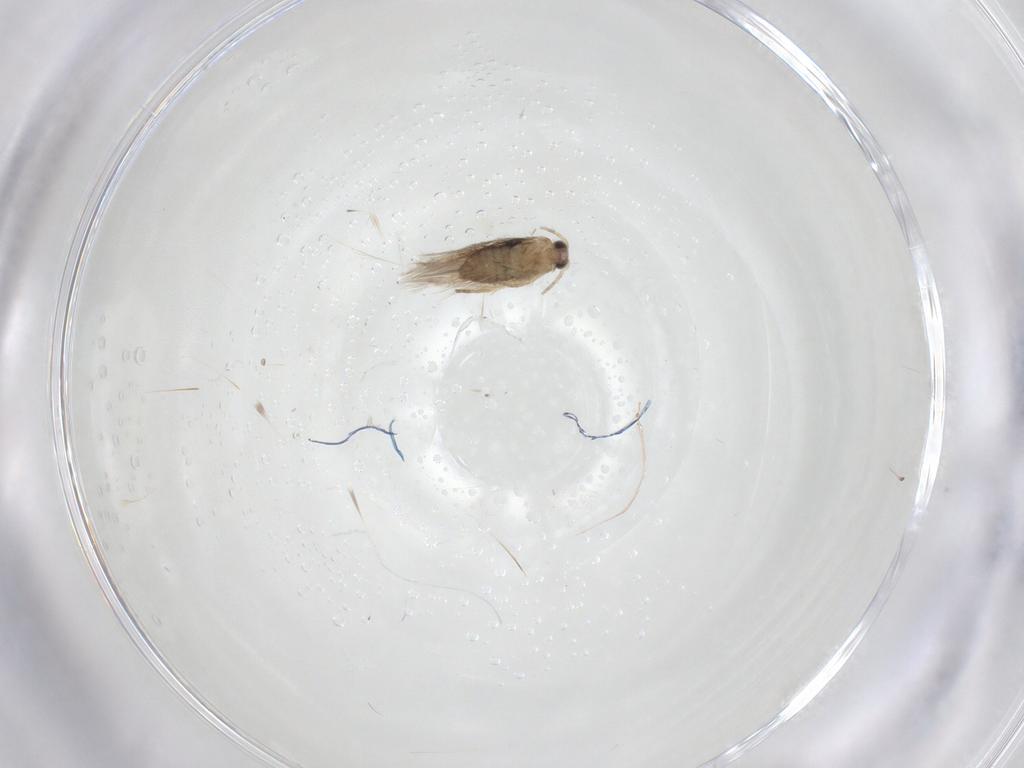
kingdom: Animalia
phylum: Arthropoda
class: Insecta
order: Lepidoptera
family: Nepticulidae
